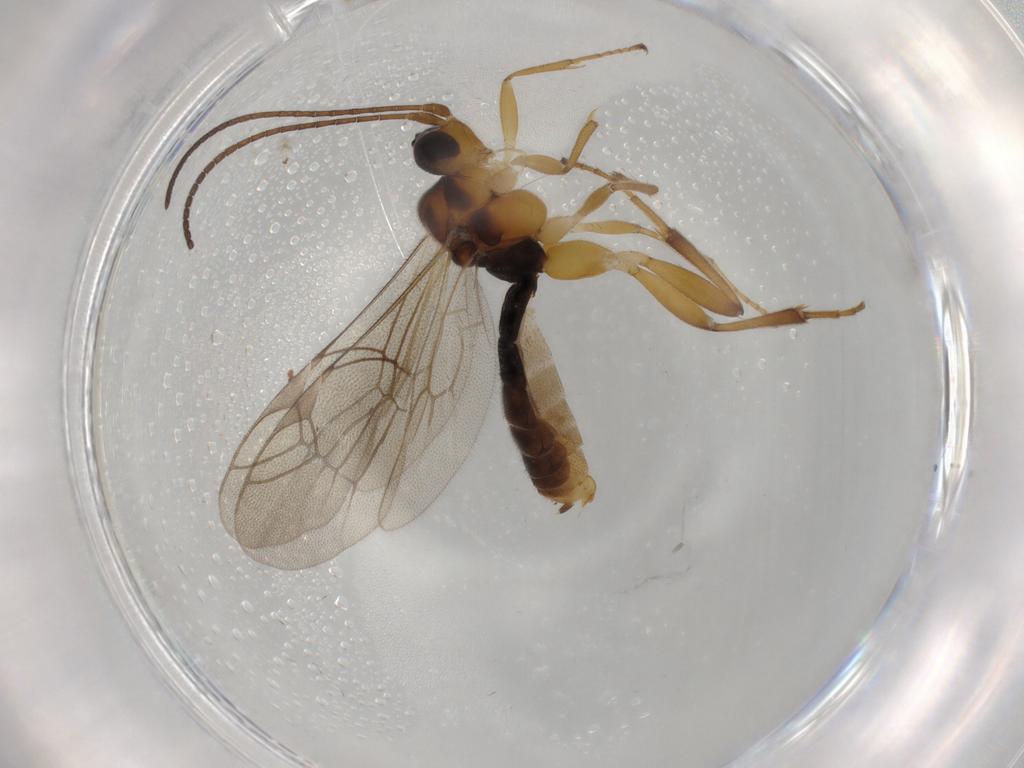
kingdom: Animalia
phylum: Arthropoda
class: Insecta
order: Hymenoptera
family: Ichneumonidae
